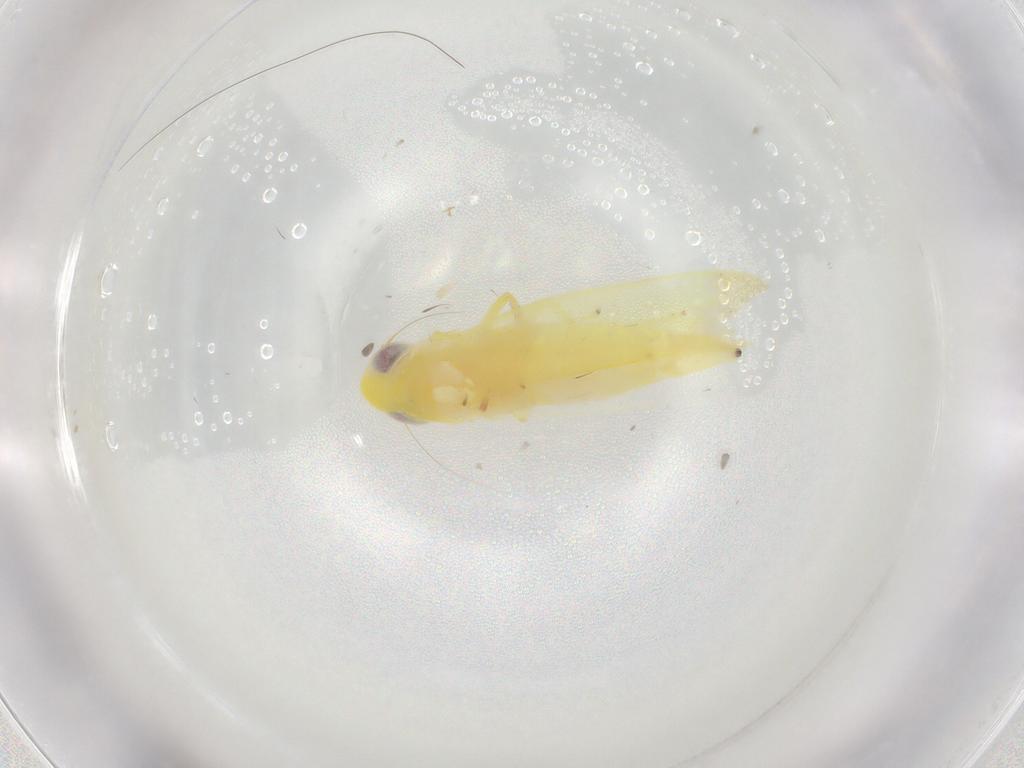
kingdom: Animalia
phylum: Arthropoda
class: Insecta
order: Hemiptera
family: Cicadellidae
